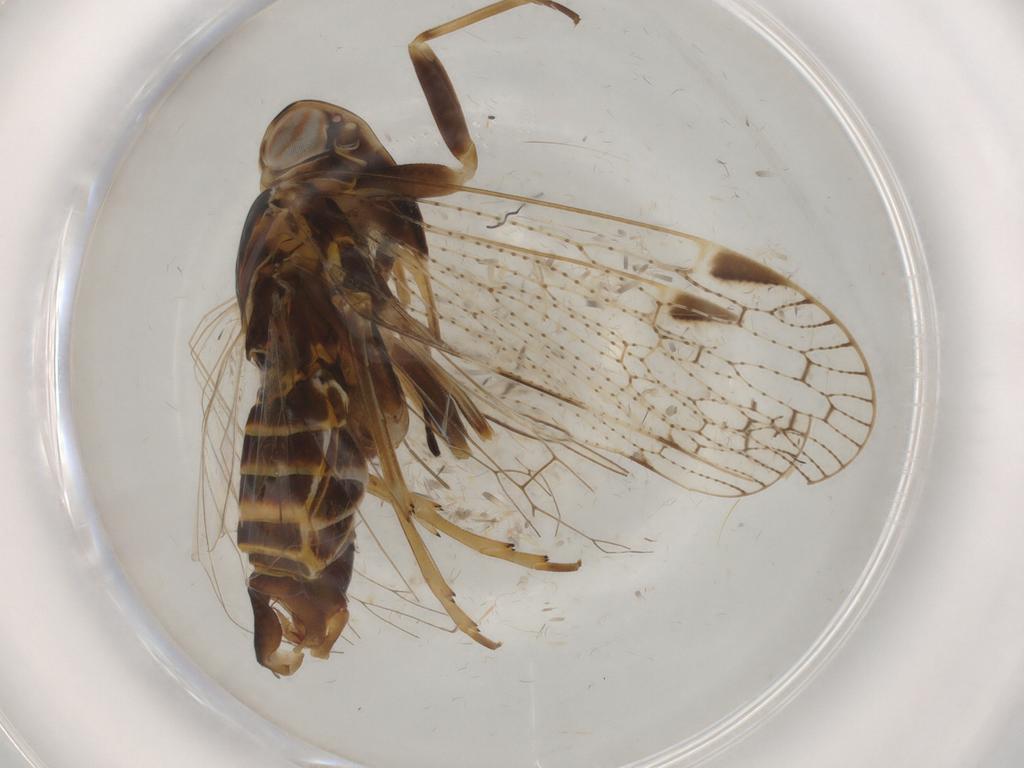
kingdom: Animalia
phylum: Arthropoda
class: Insecta
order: Hemiptera
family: Cixiidae
